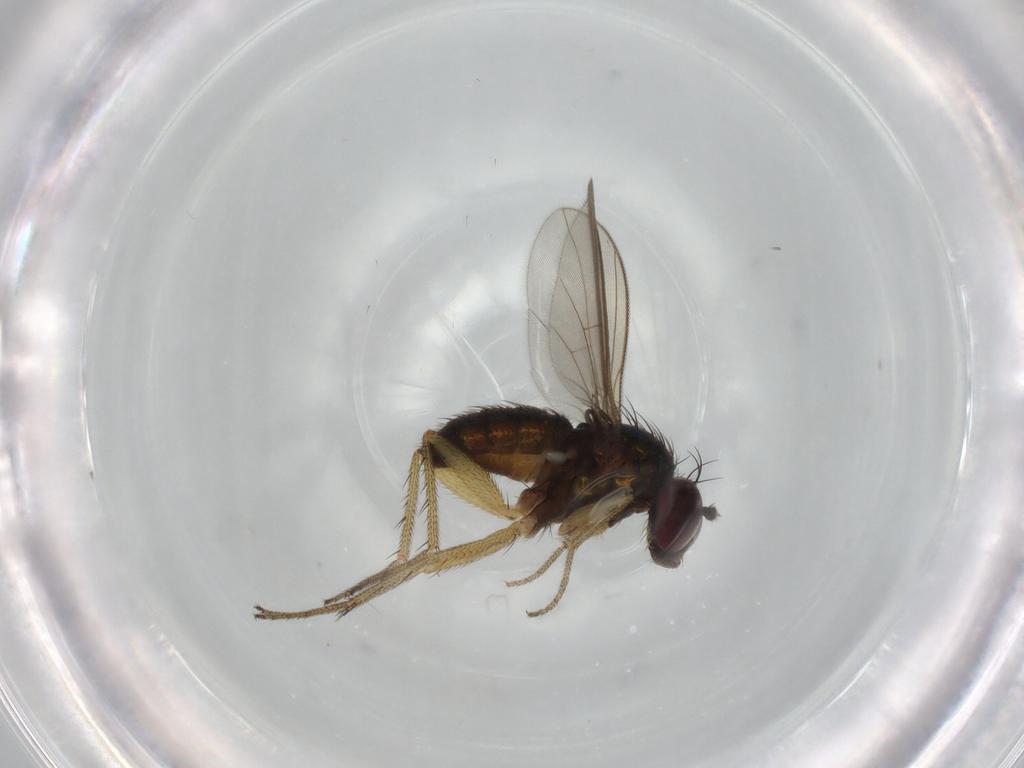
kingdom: Animalia
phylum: Arthropoda
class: Insecta
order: Diptera
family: Dolichopodidae
